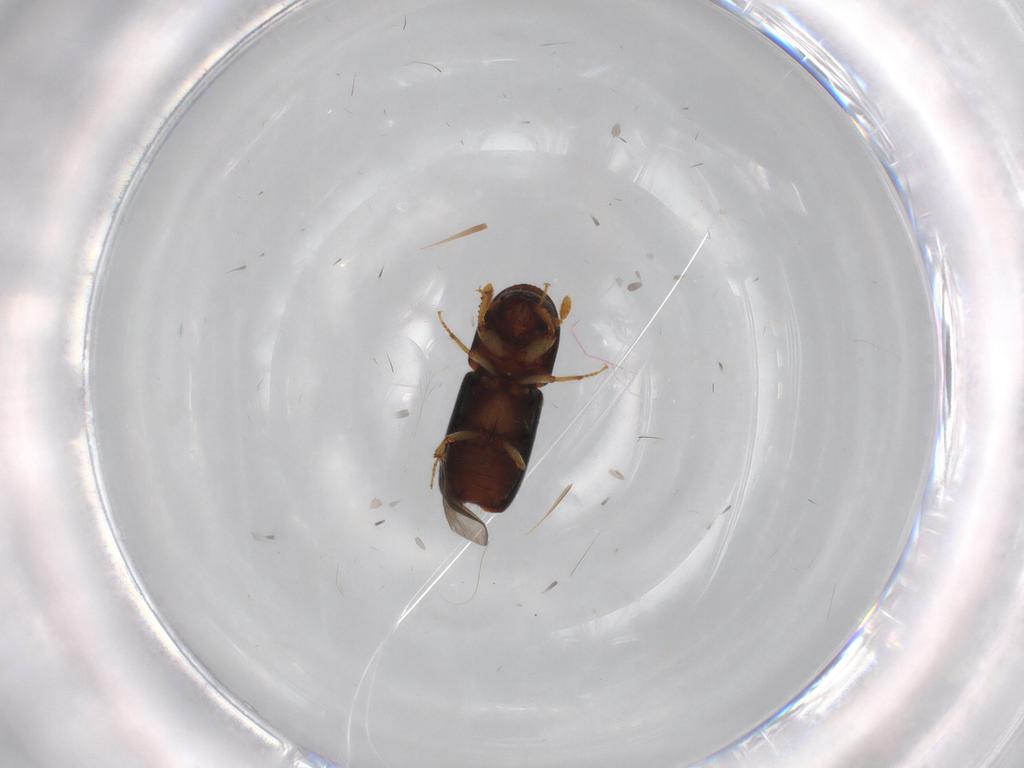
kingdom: Animalia
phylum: Arthropoda
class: Insecta
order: Coleoptera
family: Curculionidae
